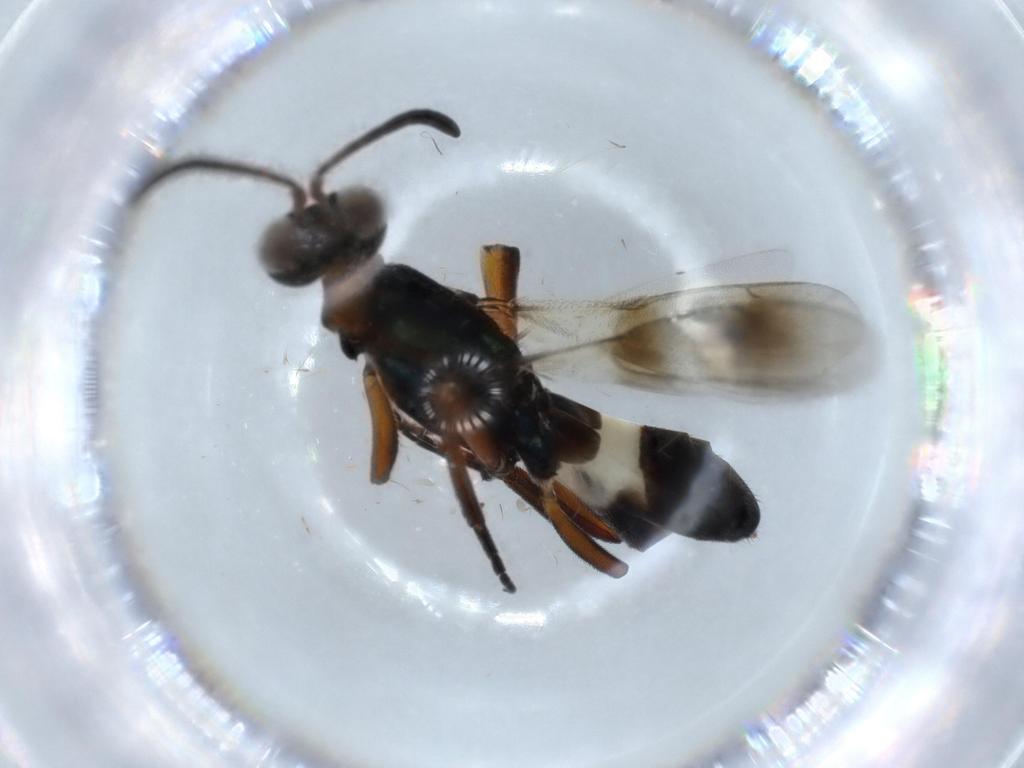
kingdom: Animalia
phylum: Arthropoda
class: Insecta
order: Hymenoptera
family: Eupelmidae
